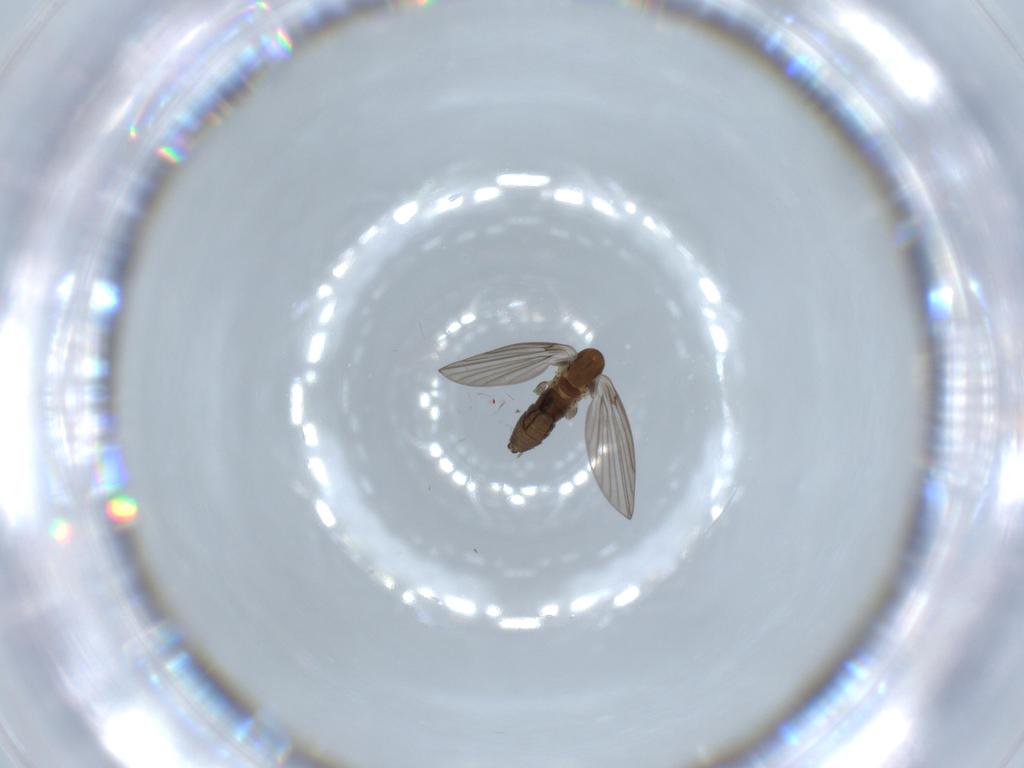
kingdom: Animalia
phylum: Arthropoda
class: Insecta
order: Diptera
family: Psychodidae
